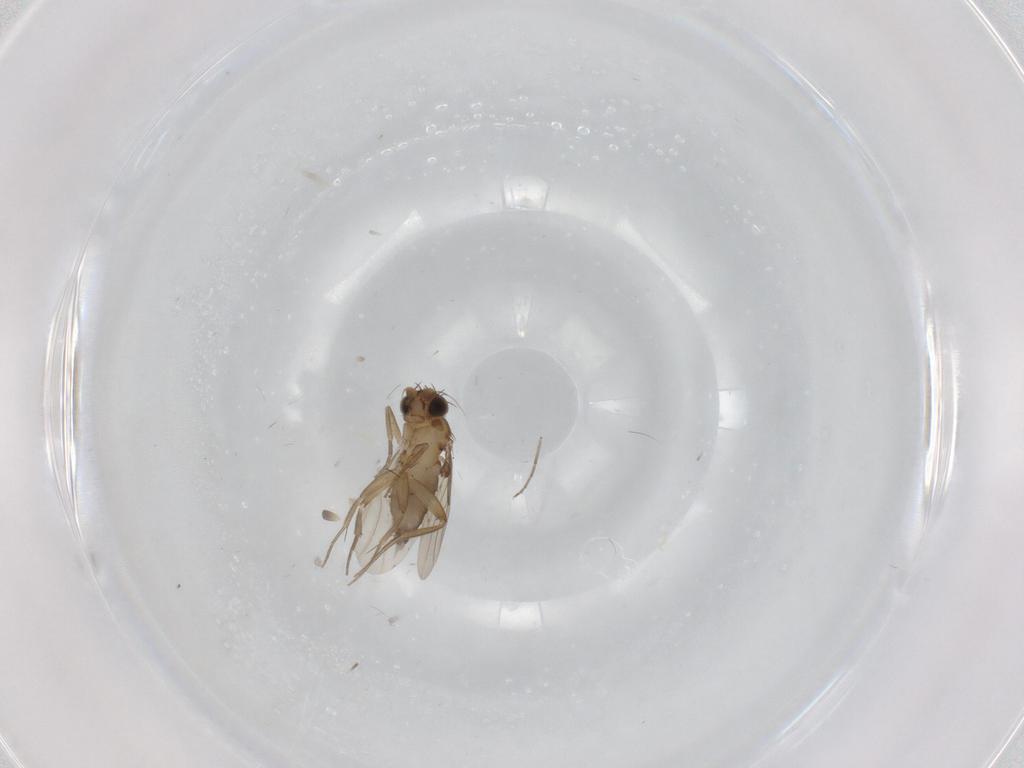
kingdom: Animalia
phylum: Arthropoda
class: Insecta
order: Diptera
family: Phoridae
